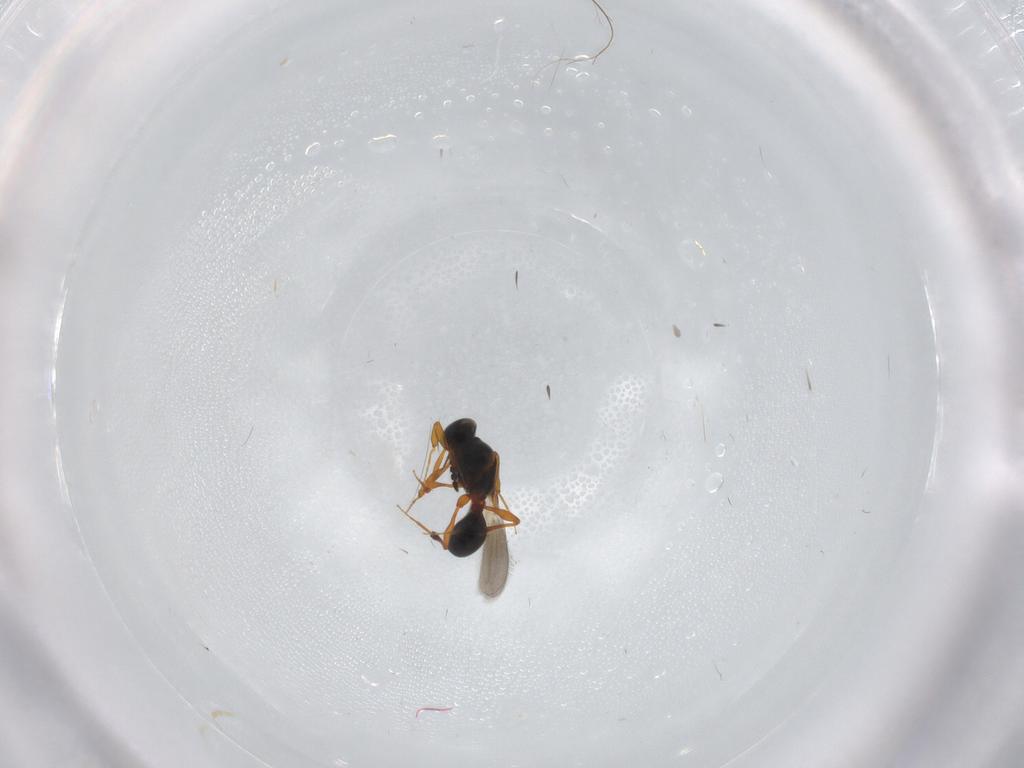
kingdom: Animalia
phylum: Arthropoda
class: Insecta
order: Hymenoptera
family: Platygastridae
